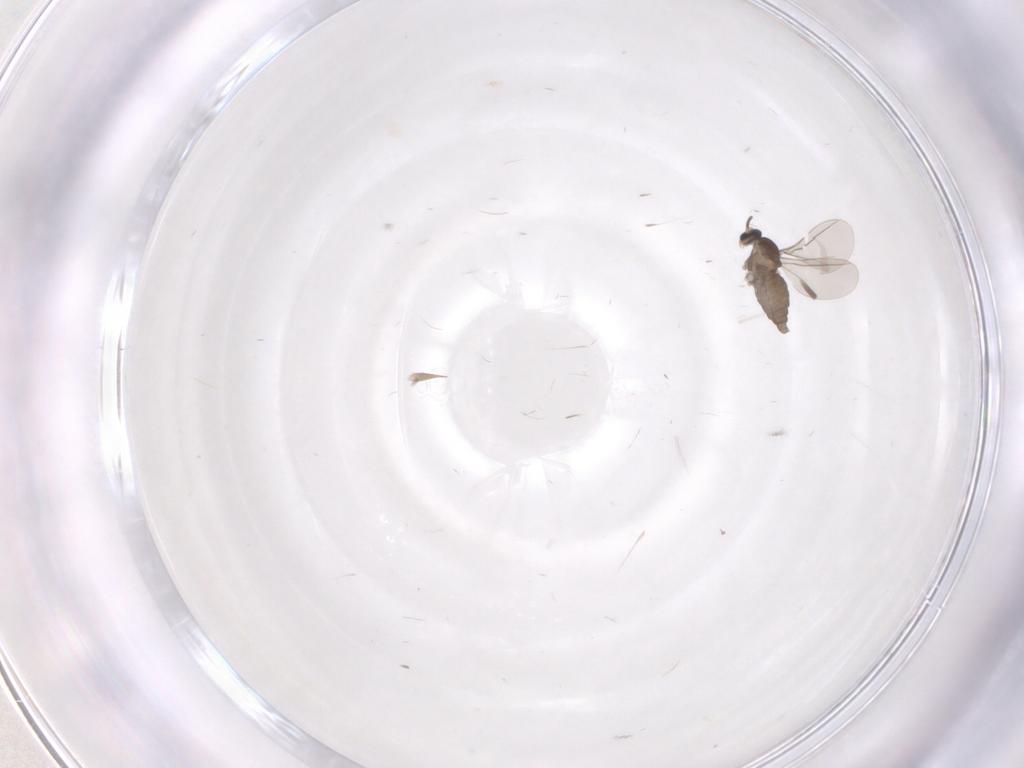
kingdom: Animalia
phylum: Arthropoda
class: Insecta
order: Diptera
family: Cecidomyiidae
